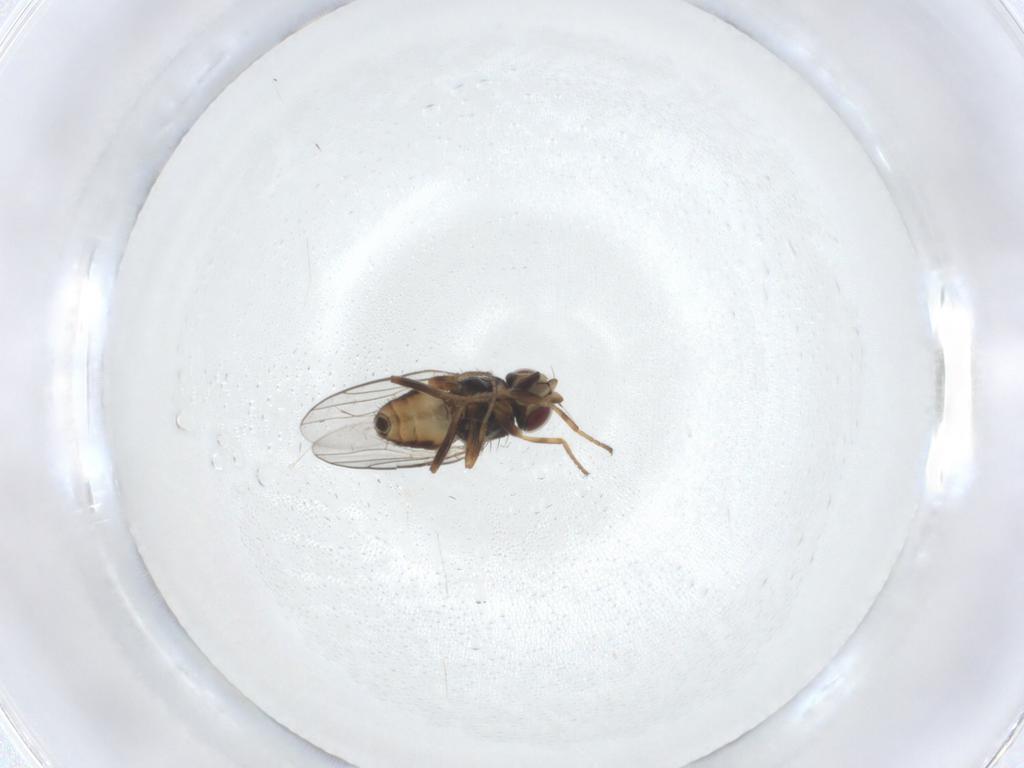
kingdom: Animalia
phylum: Arthropoda
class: Insecta
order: Diptera
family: Chloropidae
